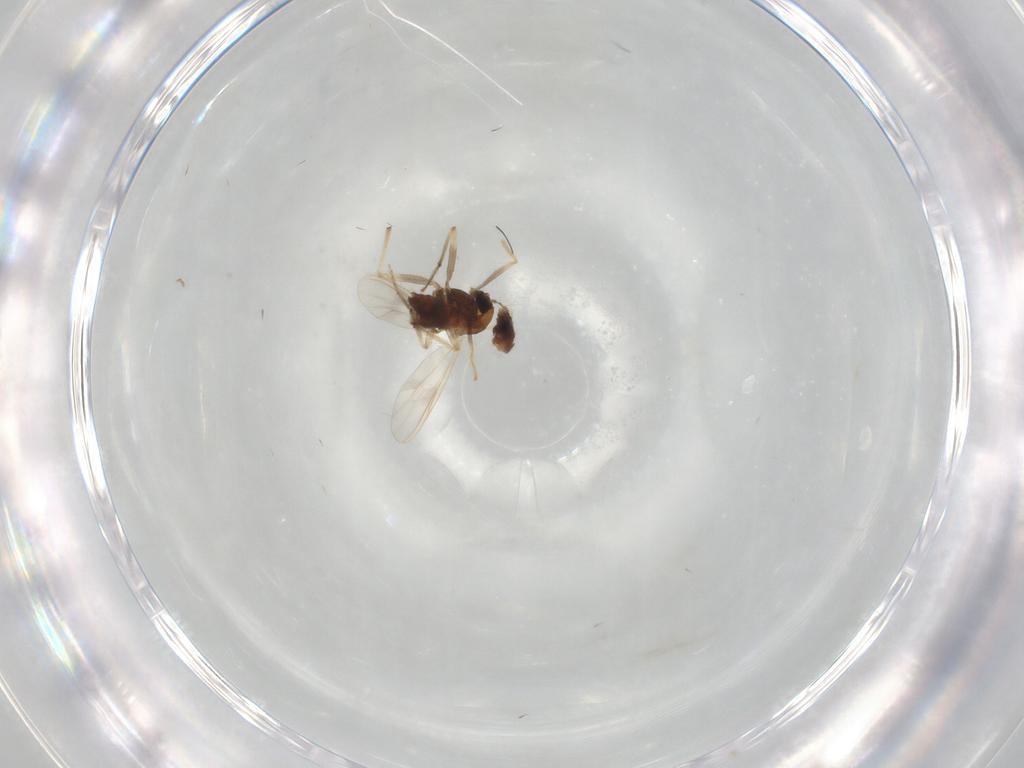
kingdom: Animalia
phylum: Arthropoda
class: Insecta
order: Diptera
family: Chironomidae
